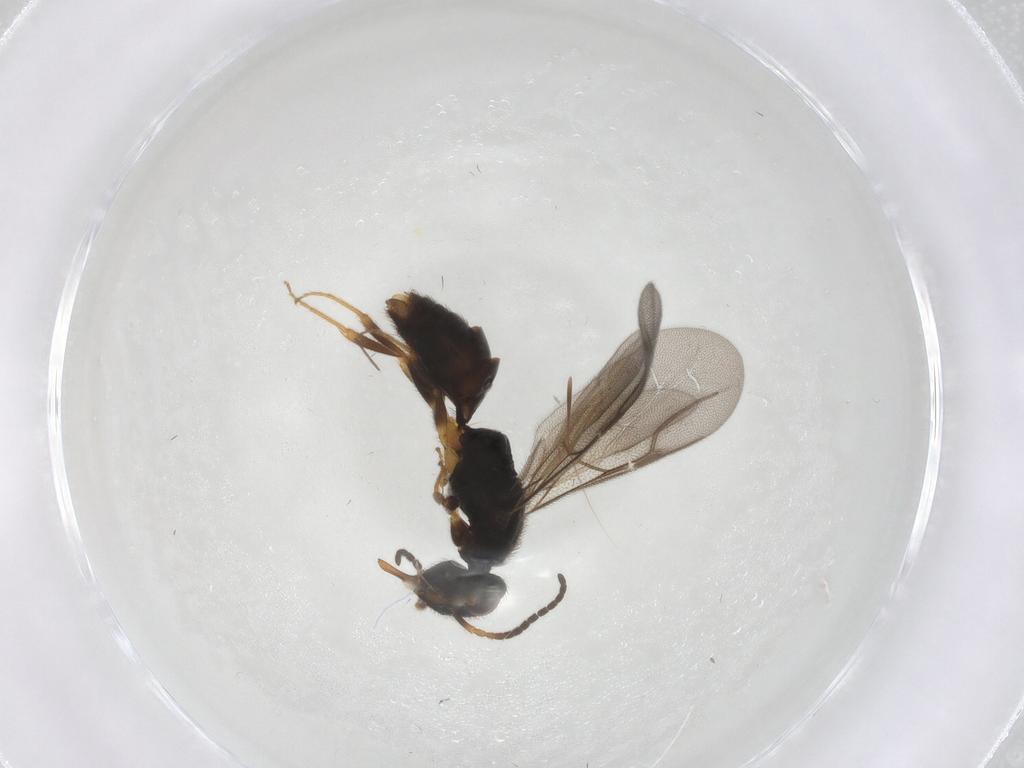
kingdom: Animalia
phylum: Arthropoda
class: Insecta
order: Hymenoptera
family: Bethylidae
